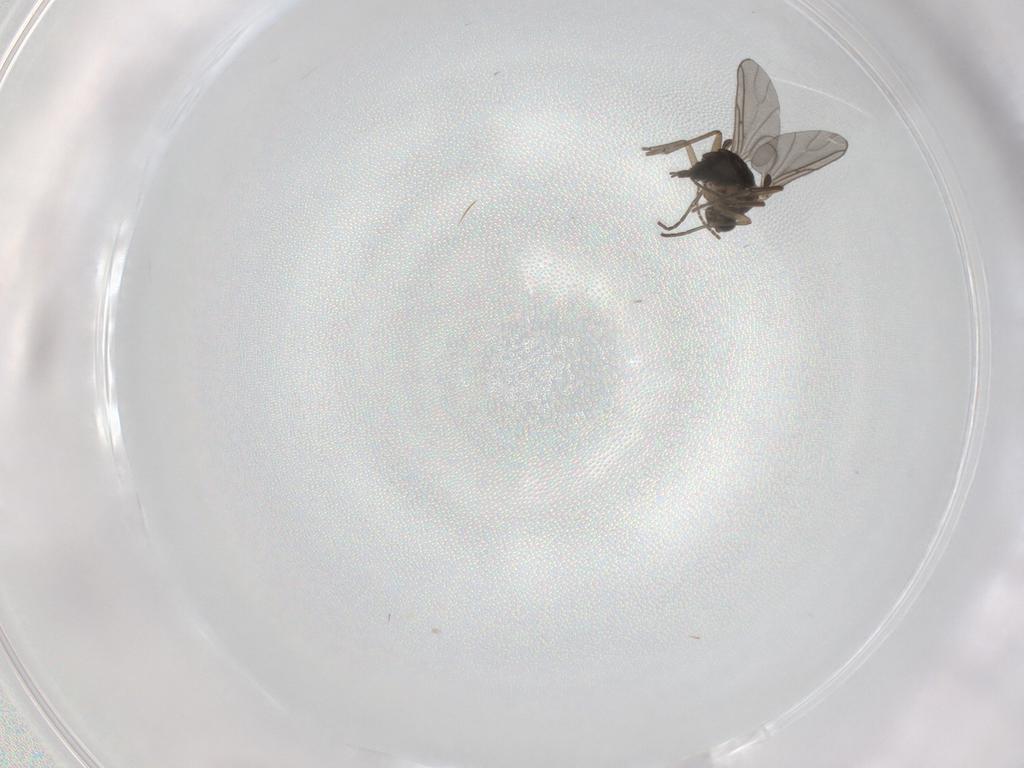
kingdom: Animalia
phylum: Arthropoda
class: Insecta
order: Diptera
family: Sciaridae
